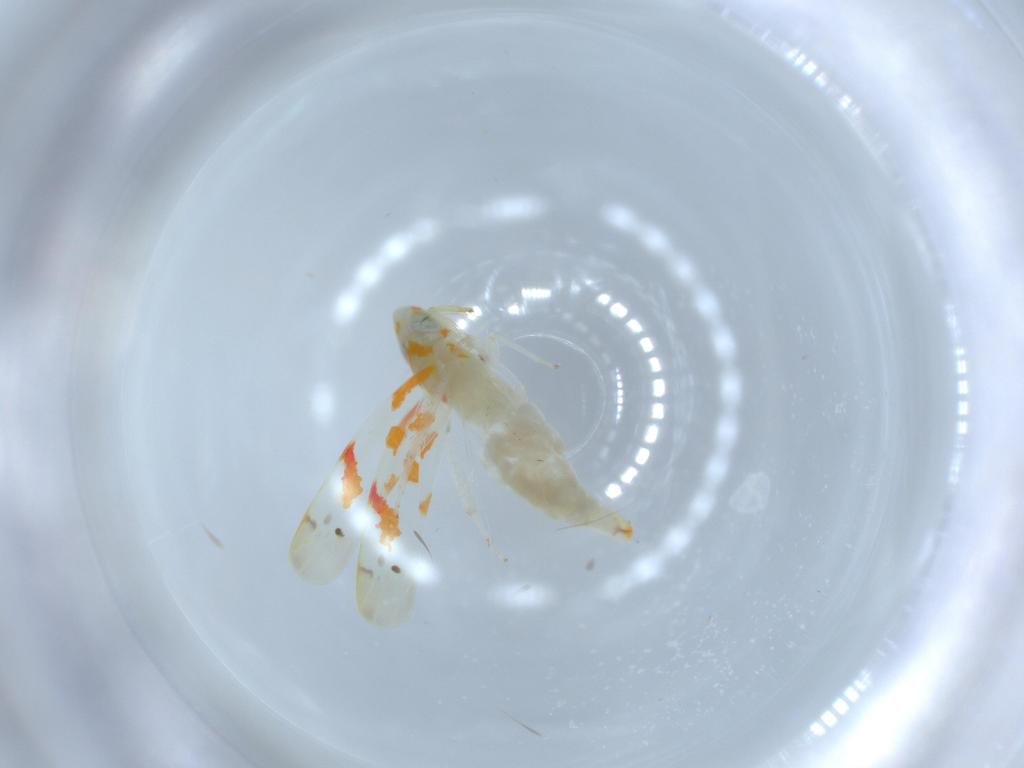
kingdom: Animalia
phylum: Arthropoda
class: Insecta
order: Hemiptera
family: Cicadellidae
